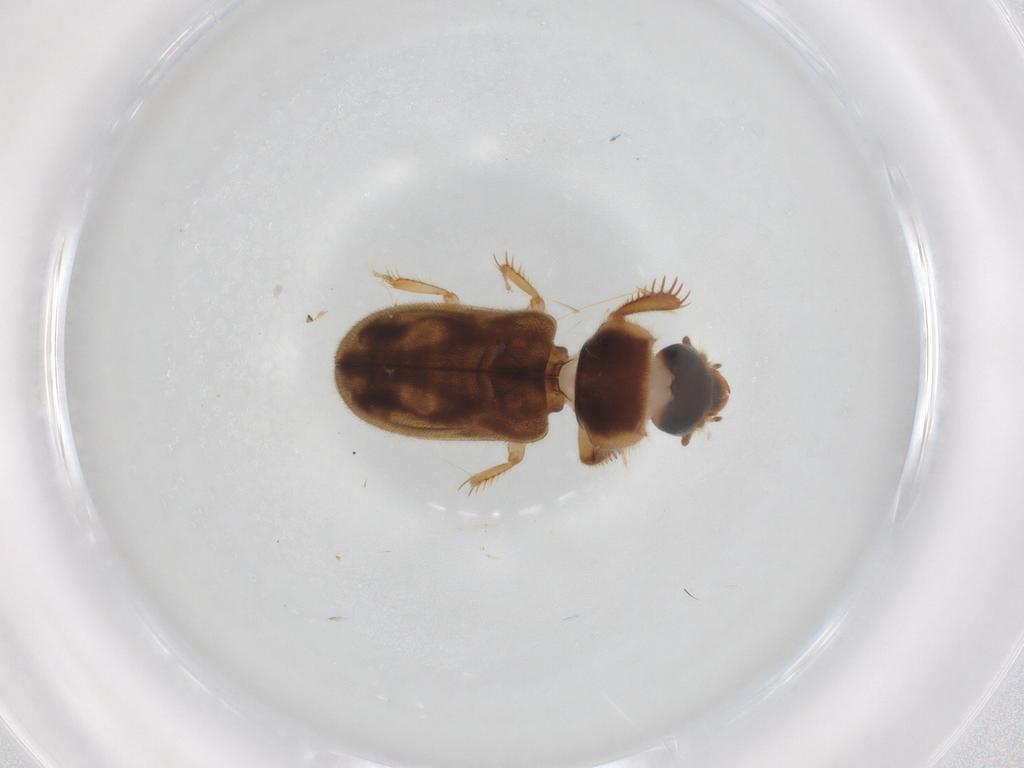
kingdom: Animalia
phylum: Arthropoda
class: Insecta
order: Coleoptera
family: Heteroceridae
